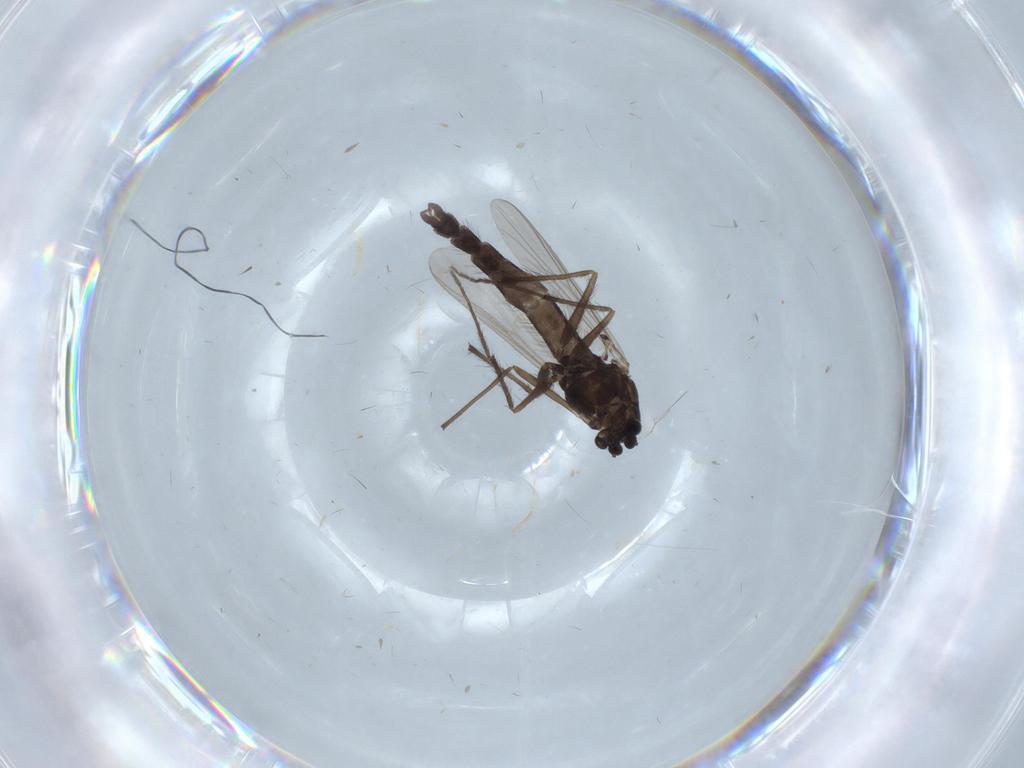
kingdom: Animalia
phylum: Arthropoda
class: Insecta
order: Diptera
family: Chironomidae
